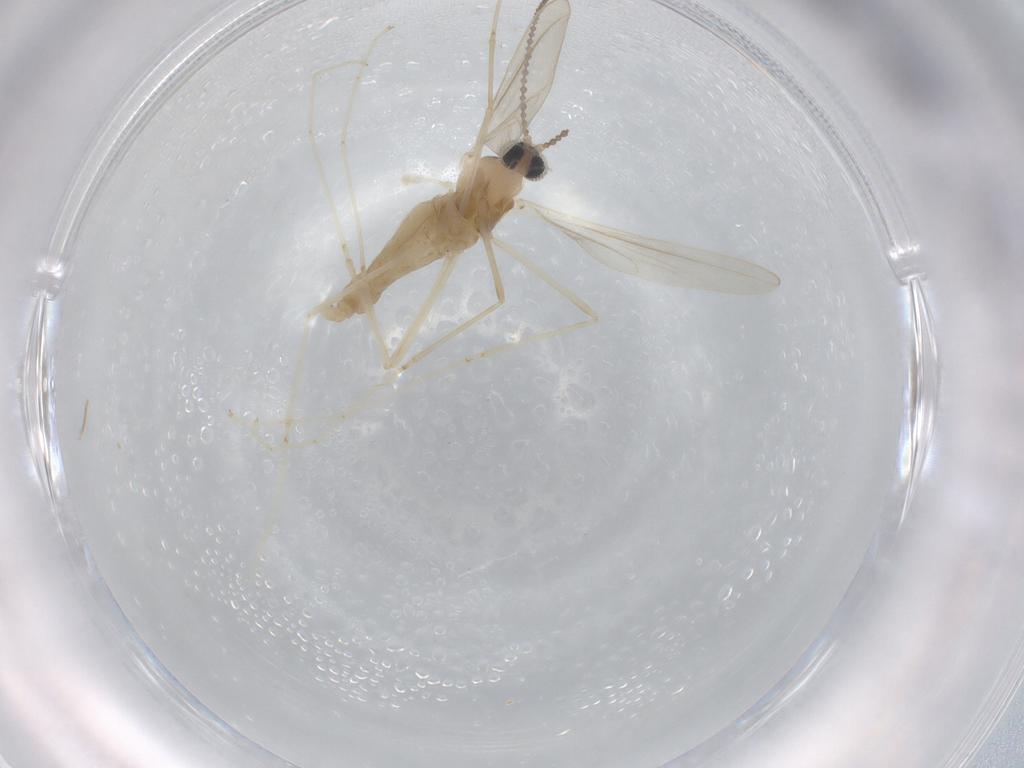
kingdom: Animalia
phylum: Arthropoda
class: Insecta
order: Diptera
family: Cecidomyiidae
